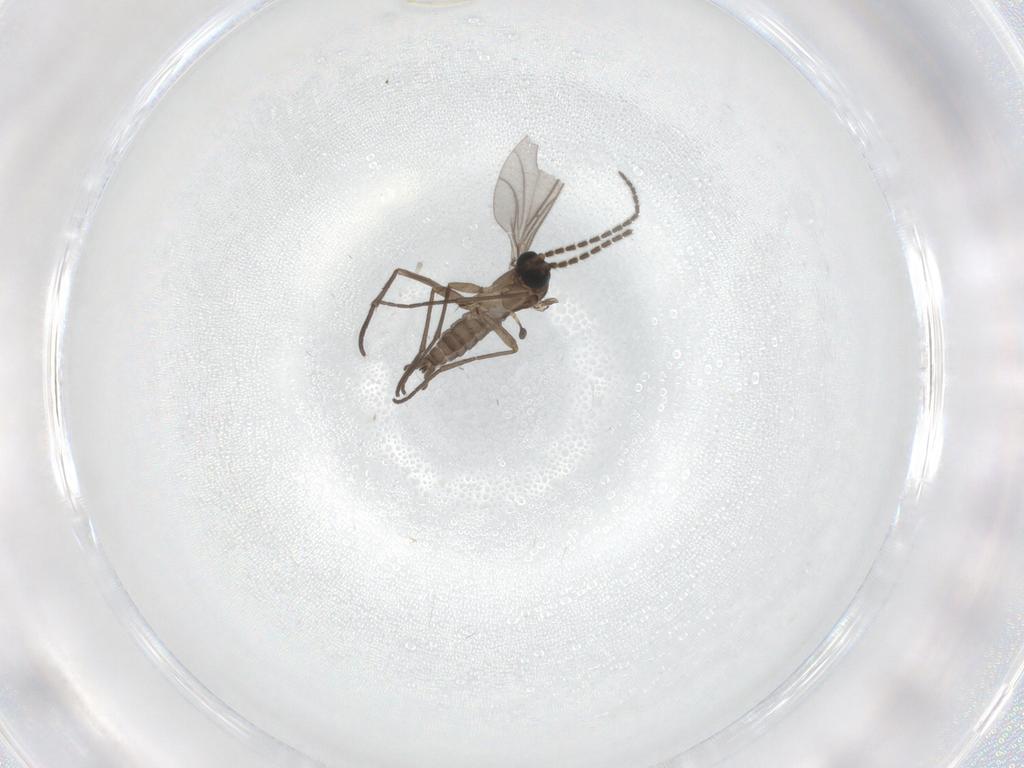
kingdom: Animalia
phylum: Arthropoda
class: Insecta
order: Diptera
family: Sciaridae
